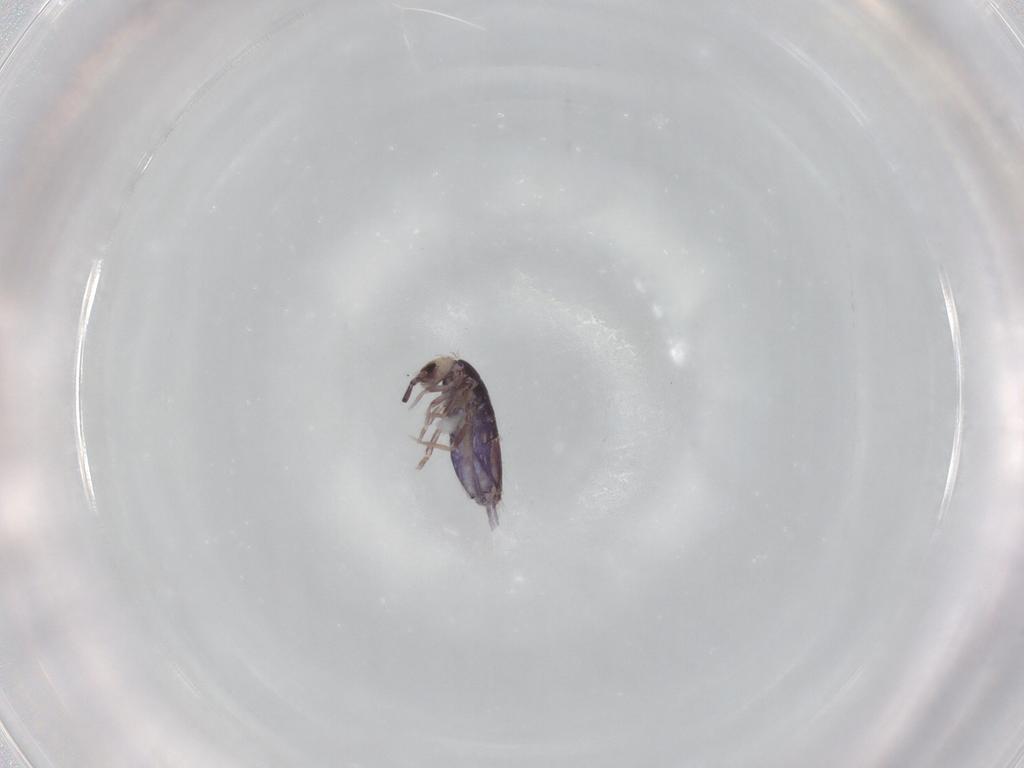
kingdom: Animalia
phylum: Arthropoda
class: Collembola
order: Entomobryomorpha
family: Entomobryidae
